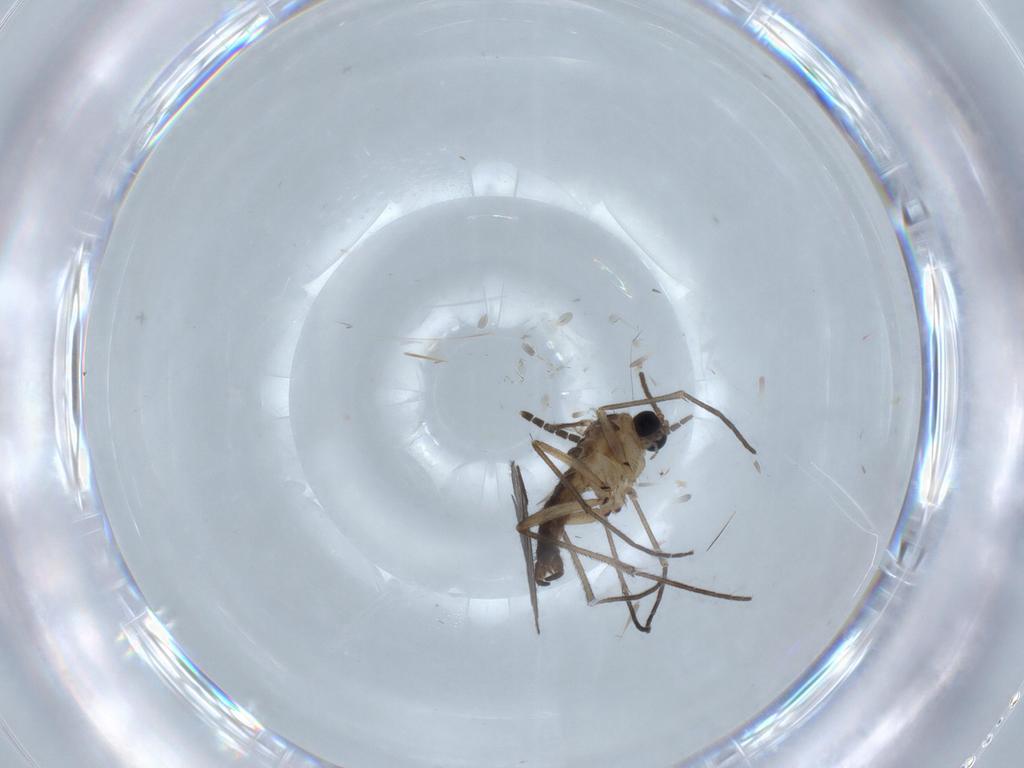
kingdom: Animalia
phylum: Arthropoda
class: Insecta
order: Diptera
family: Sciaridae
